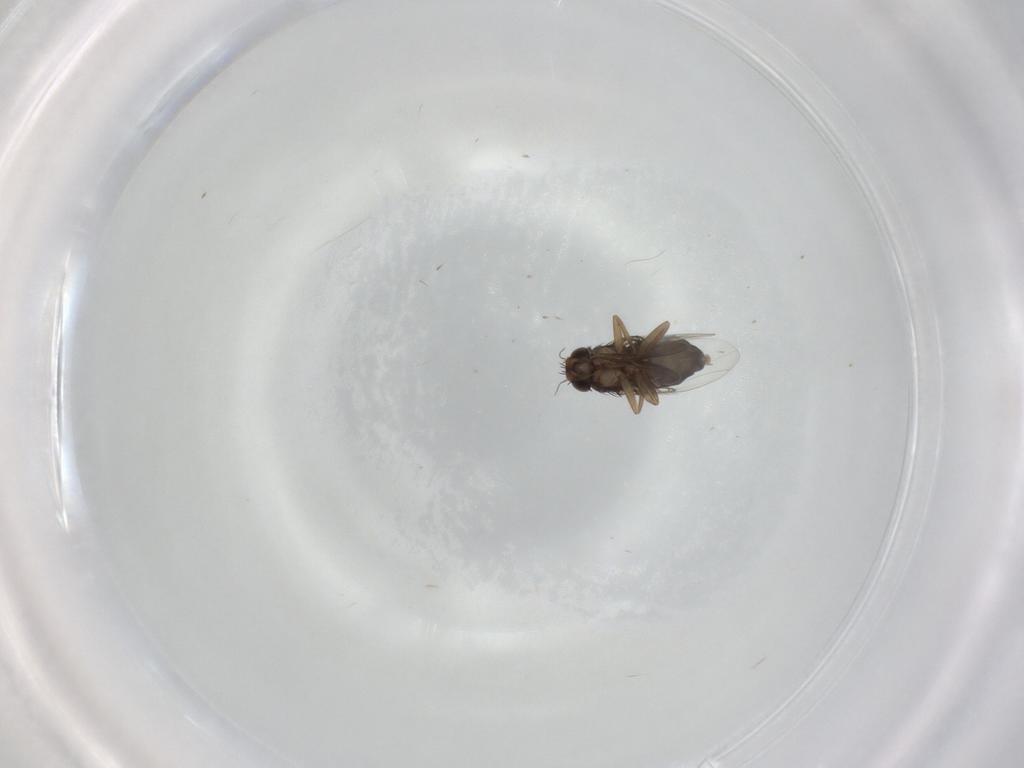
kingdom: Animalia
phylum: Arthropoda
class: Insecta
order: Diptera
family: Phoridae
